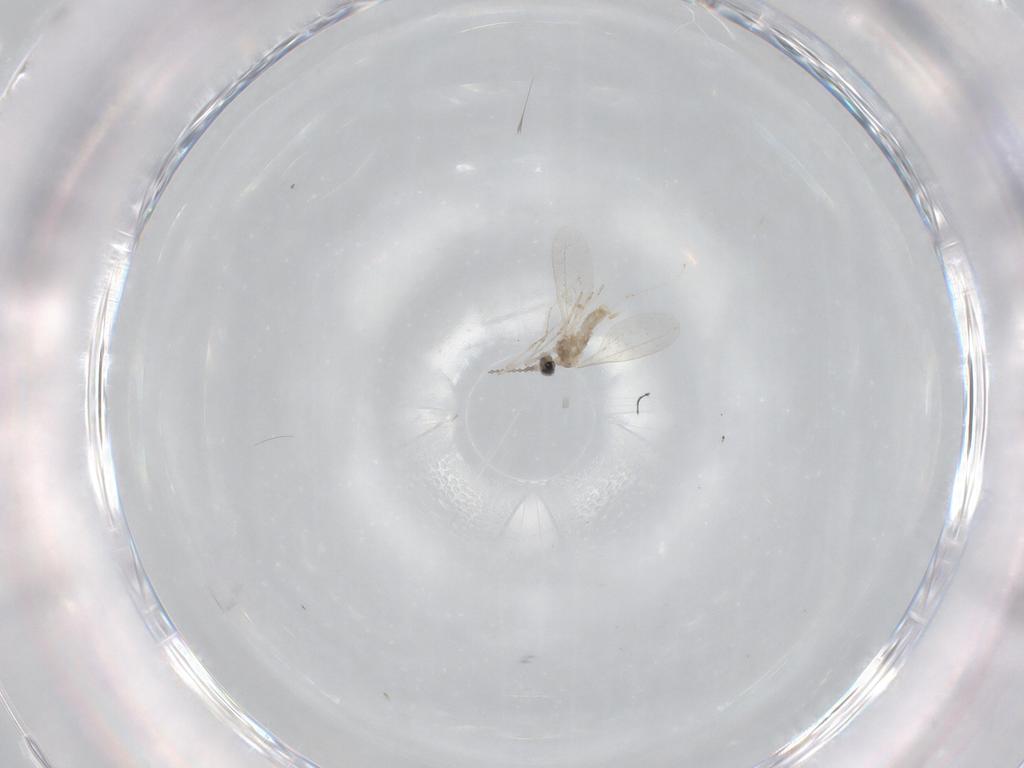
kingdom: Animalia
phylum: Arthropoda
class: Insecta
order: Diptera
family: Cecidomyiidae
